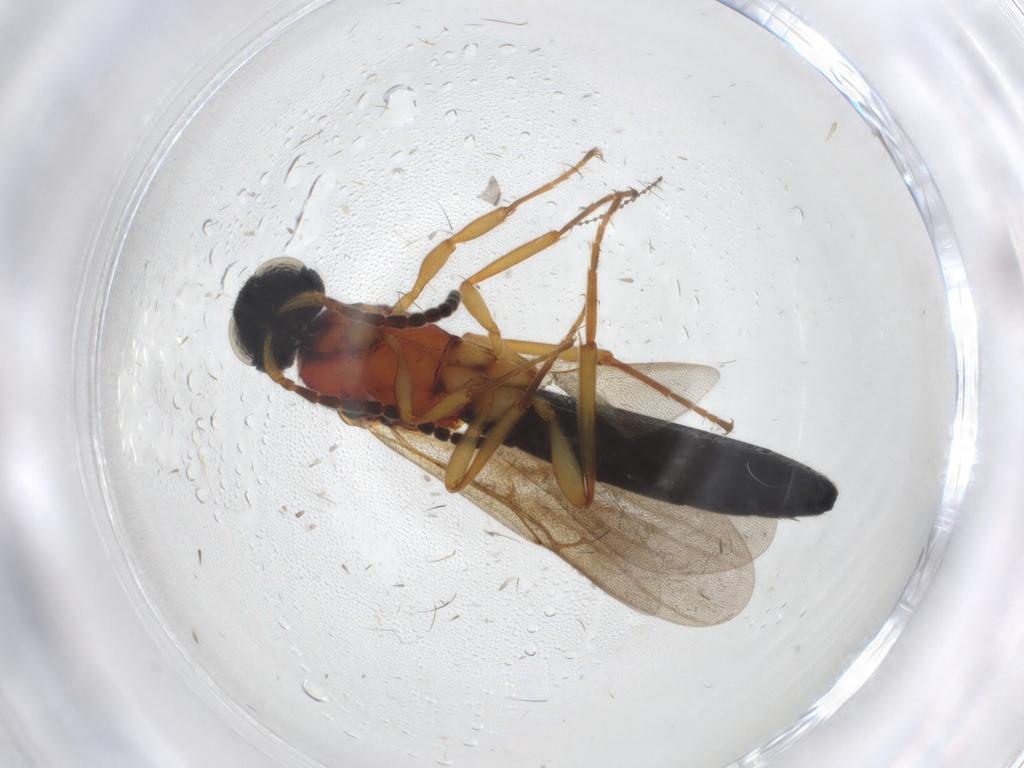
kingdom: Animalia
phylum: Arthropoda
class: Insecta
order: Hymenoptera
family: Scelionidae
